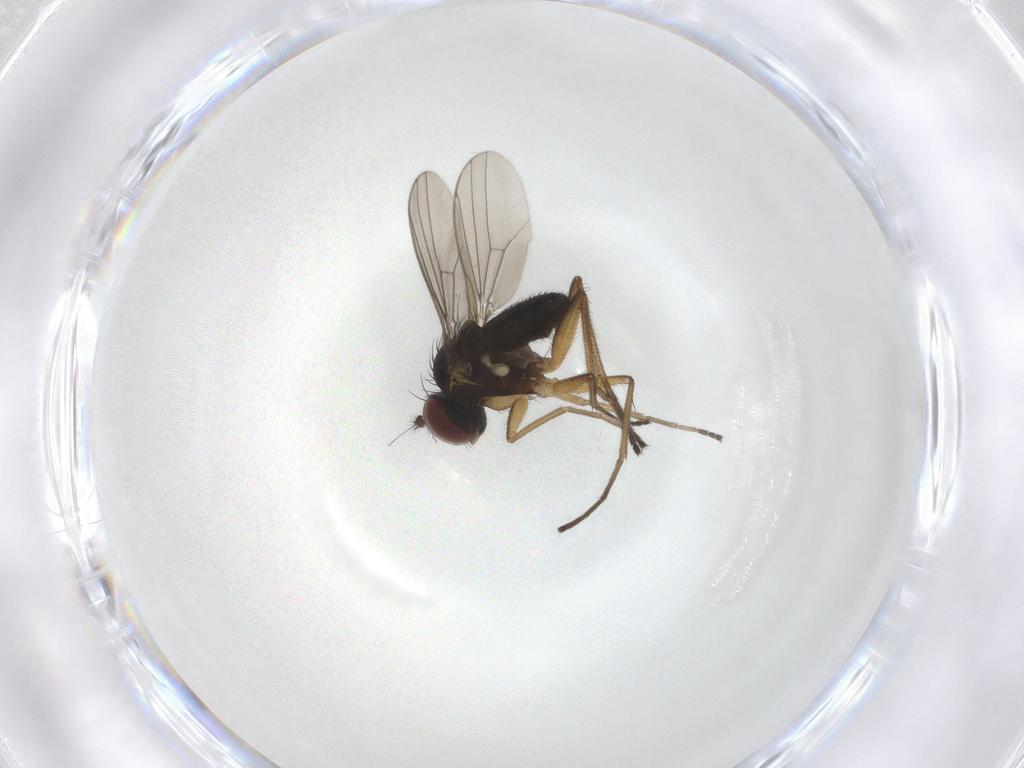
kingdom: Animalia
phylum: Arthropoda
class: Insecta
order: Diptera
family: Dolichopodidae
